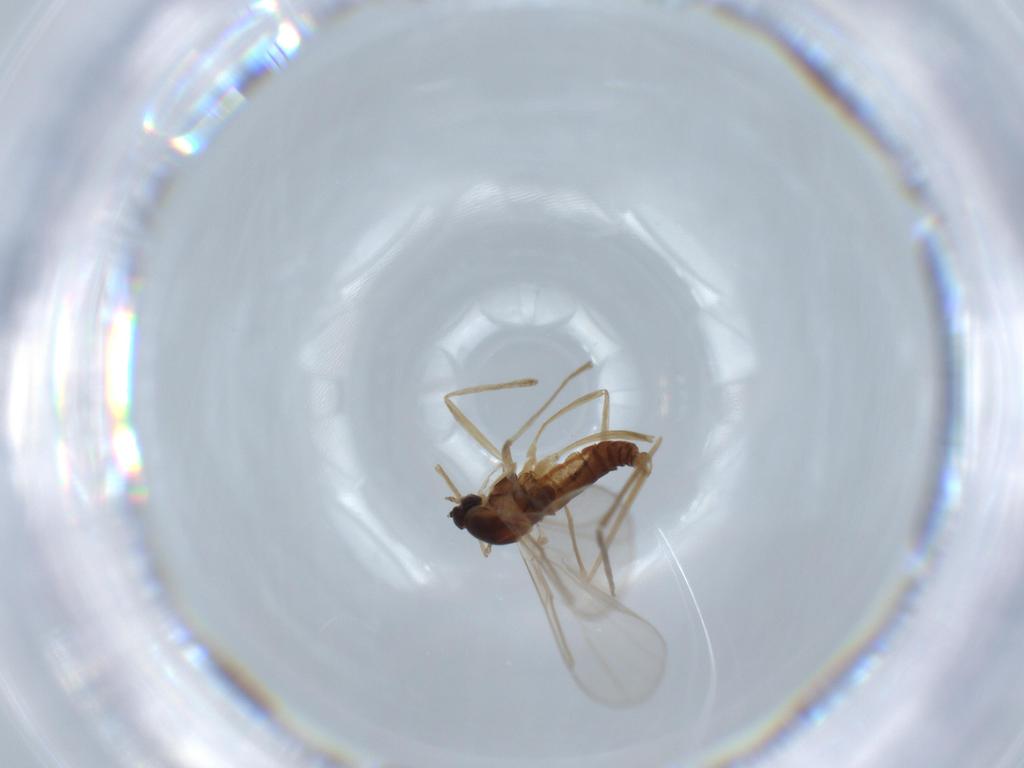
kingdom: Animalia
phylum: Arthropoda
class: Insecta
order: Diptera
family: Cecidomyiidae
